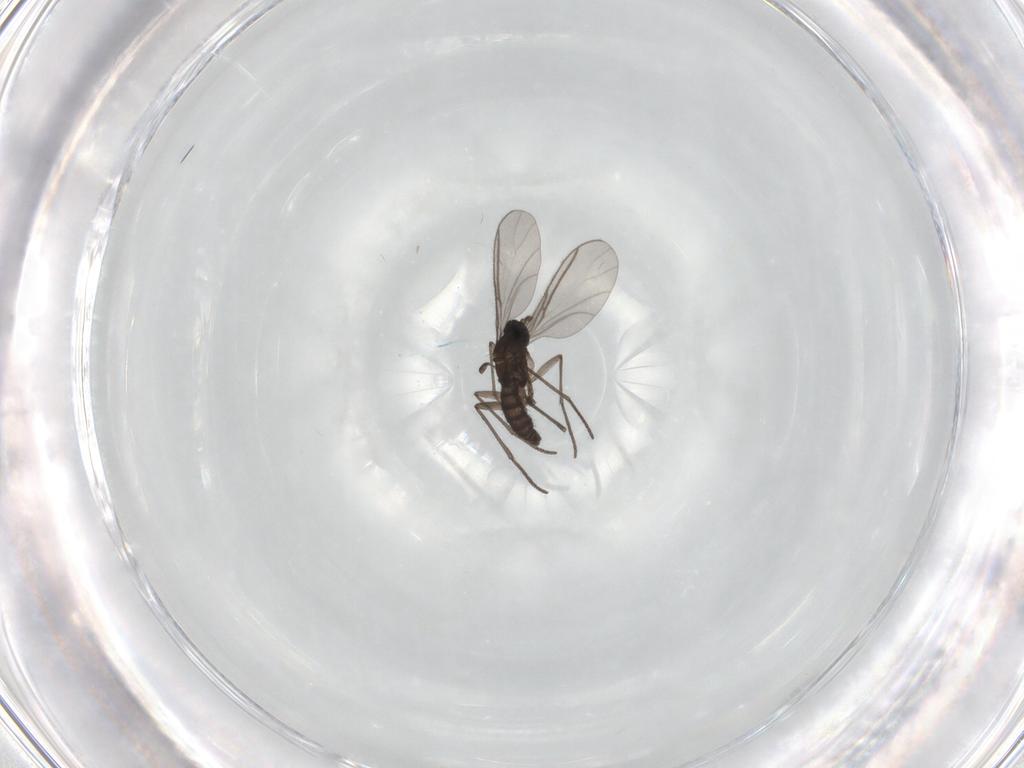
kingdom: Animalia
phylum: Arthropoda
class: Insecta
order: Diptera
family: Sciaridae
